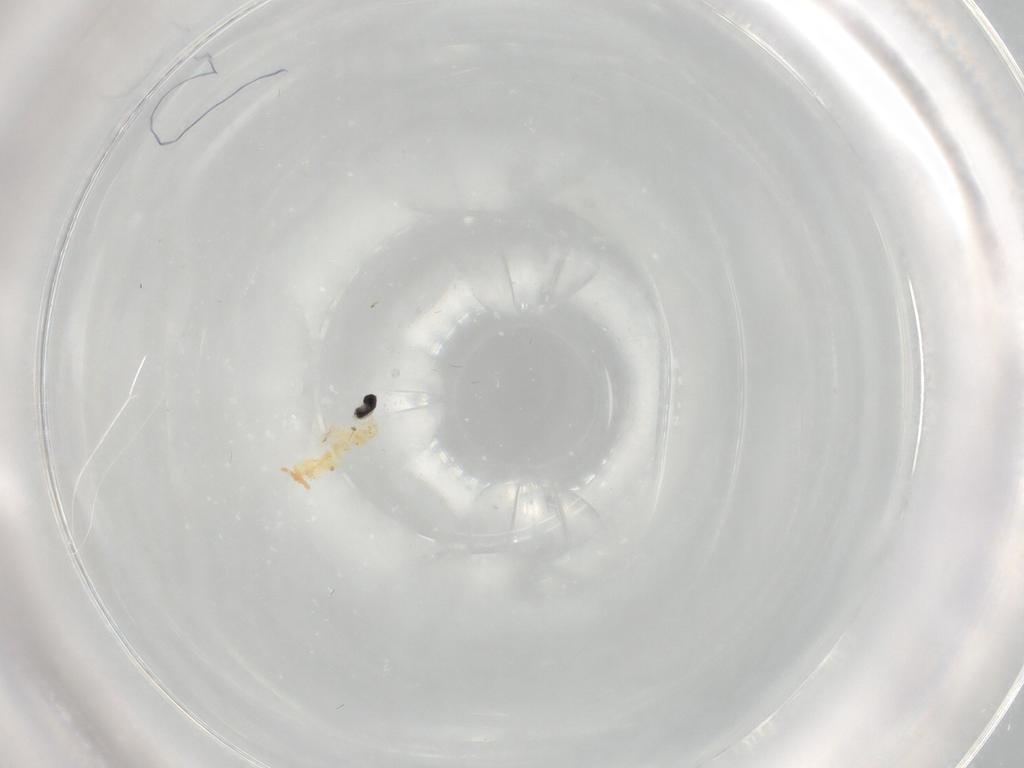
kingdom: Animalia
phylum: Arthropoda
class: Insecta
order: Diptera
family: Cecidomyiidae
